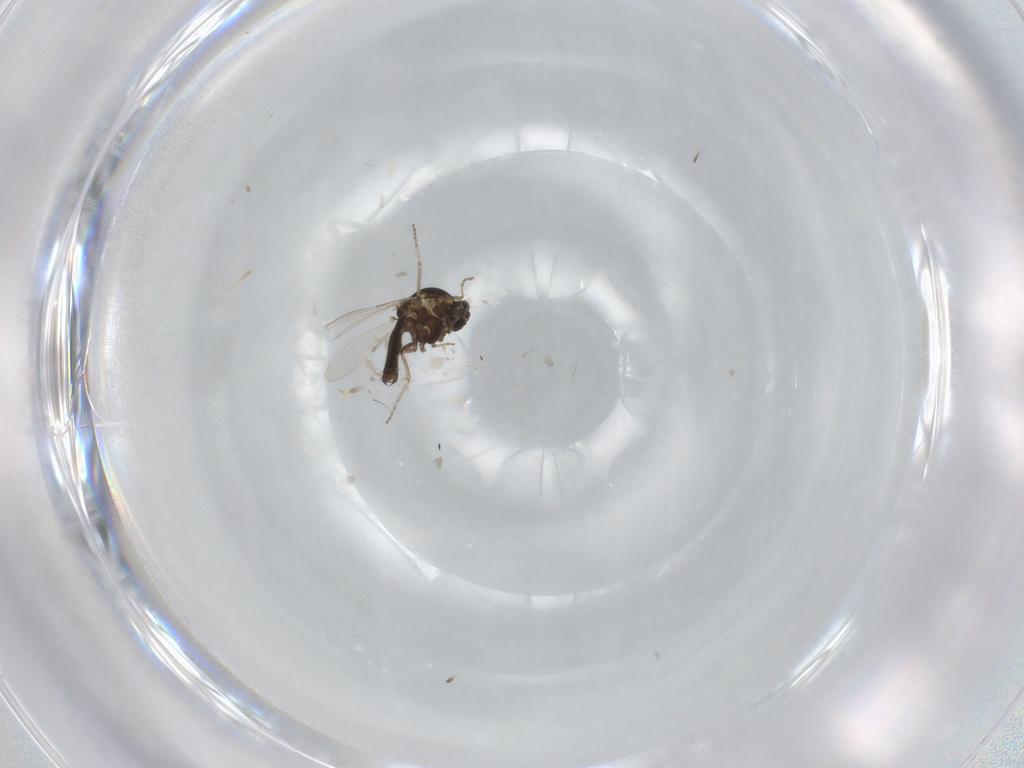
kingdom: Animalia
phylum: Arthropoda
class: Insecta
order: Diptera
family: Ceratopogonidae
